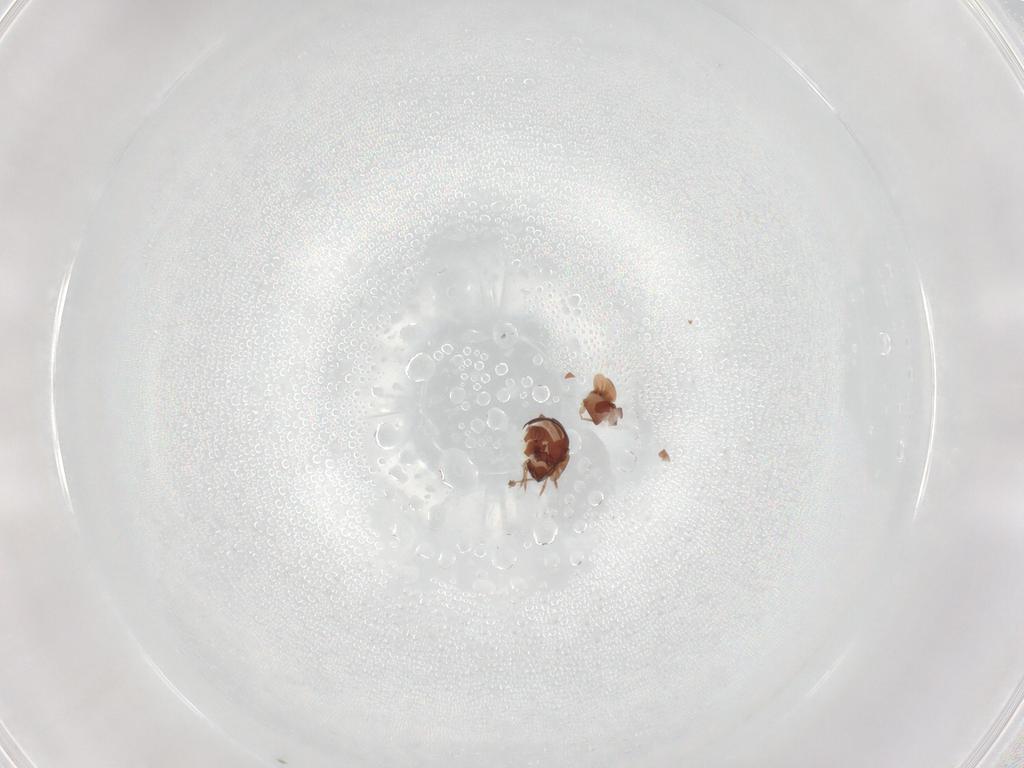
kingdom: Animalia
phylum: Arthropoda
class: Arachnida
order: Sarcoptiformes
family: Galumnidae
